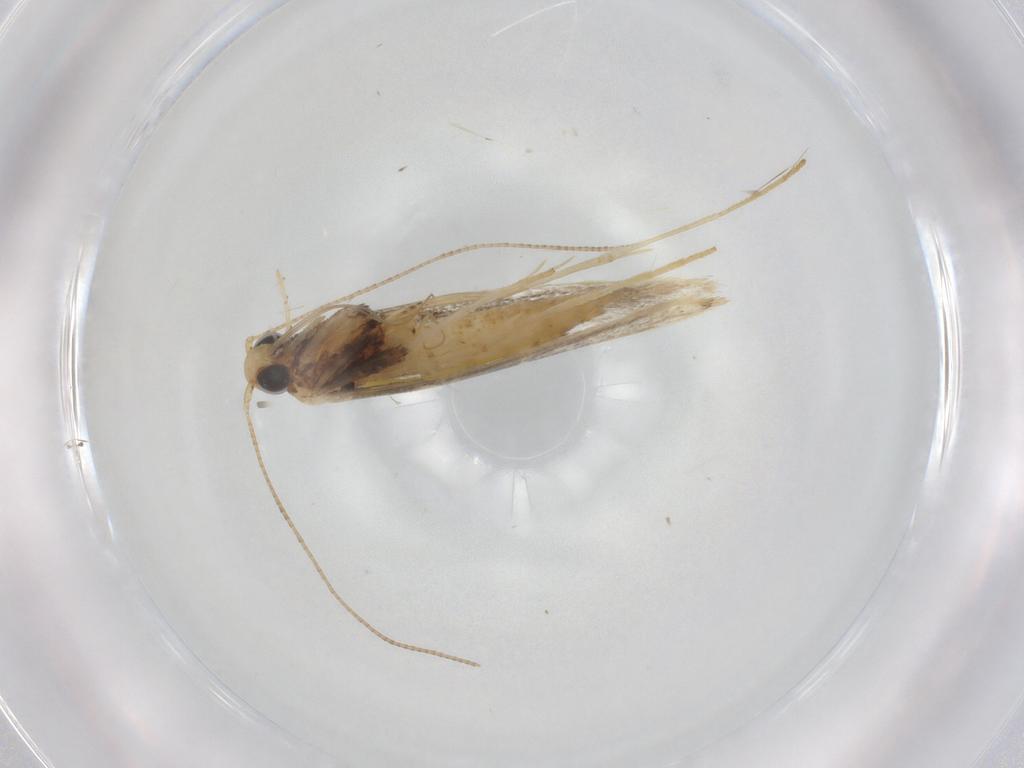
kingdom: Animalia
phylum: Arthropoda
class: Insecta
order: Lepidoptera
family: Gracillariidae
